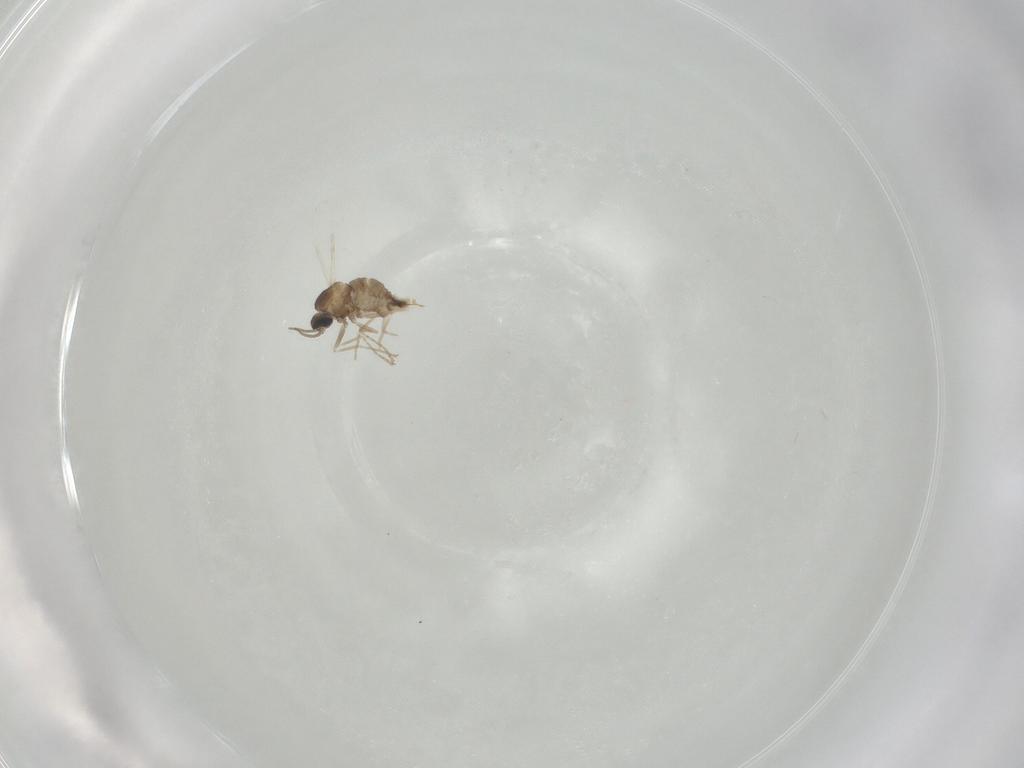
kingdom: Animalia
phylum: Arthropoda
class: Insecta
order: Diptera
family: Cecidomyiidae
